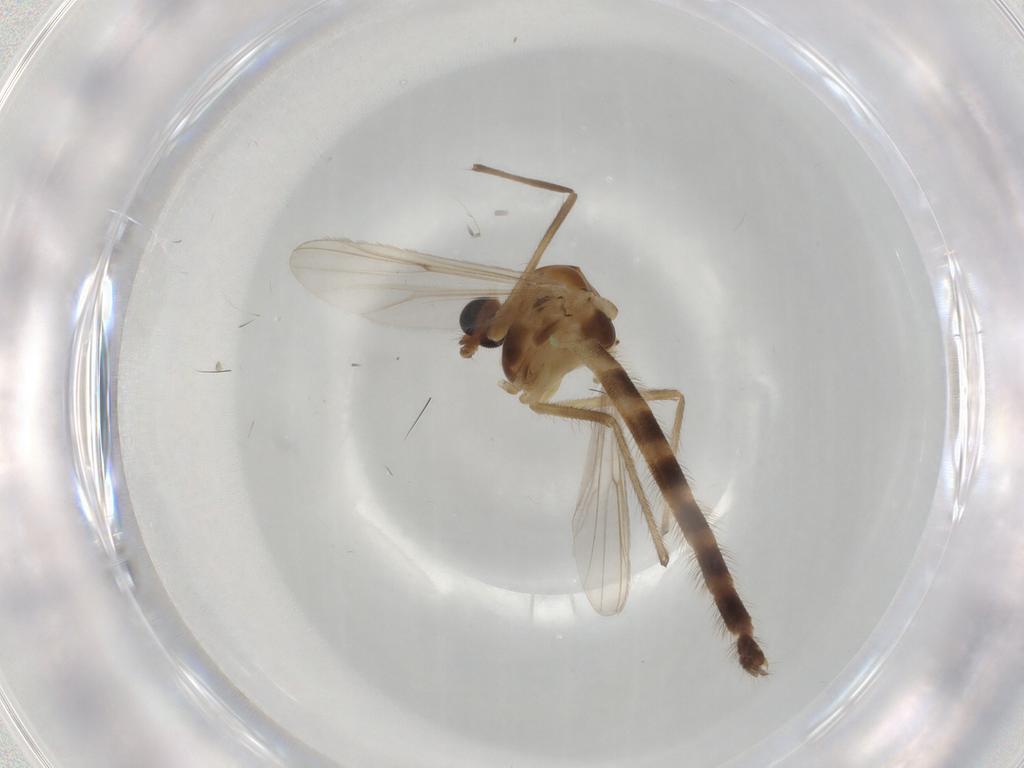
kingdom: Animalia
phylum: Arthropoda
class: Insecta
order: Diptera
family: Chironomidae
